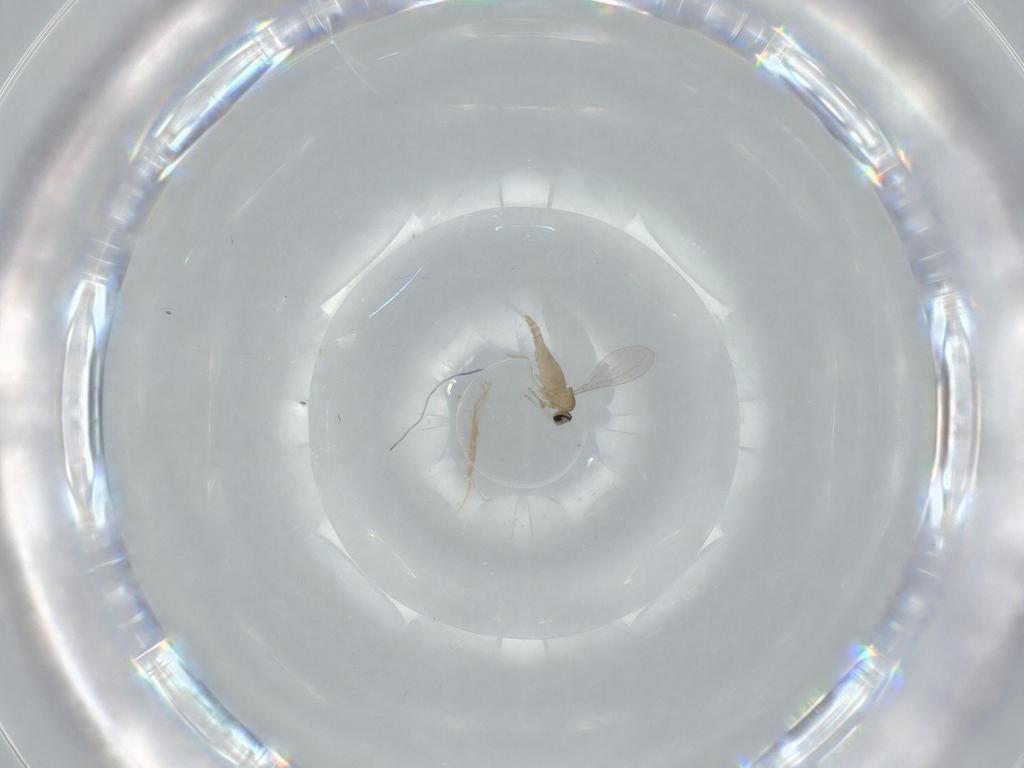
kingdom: Animalia
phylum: Arthropoda
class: Insecta
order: Diptera
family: Cecidomyiidae
